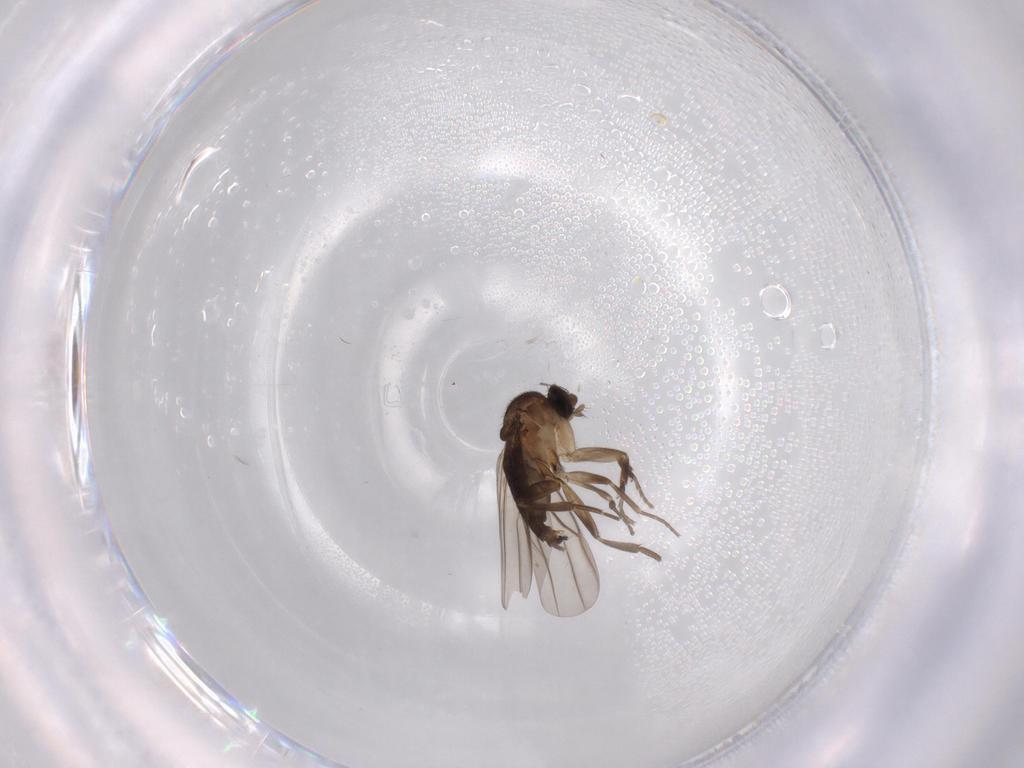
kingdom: Animalia
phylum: Arthropoda
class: Insecta
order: Diptera
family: Phoridae
